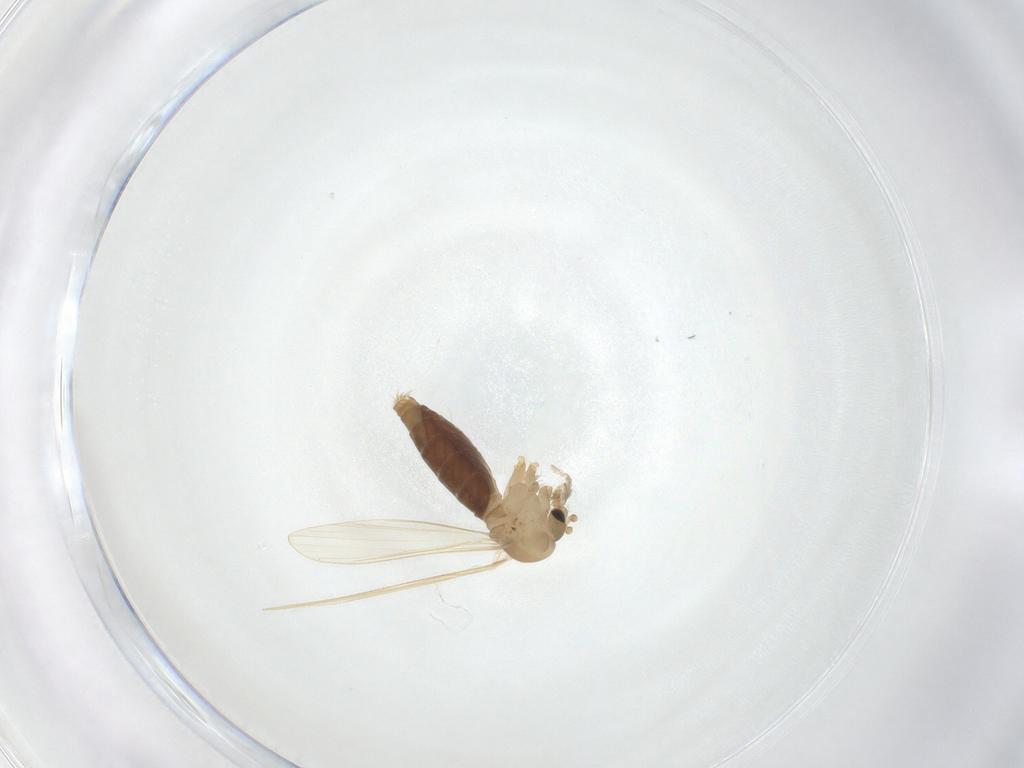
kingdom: Animalia
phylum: Arthropoda
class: Insecta
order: Diptera
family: Psychodidae
